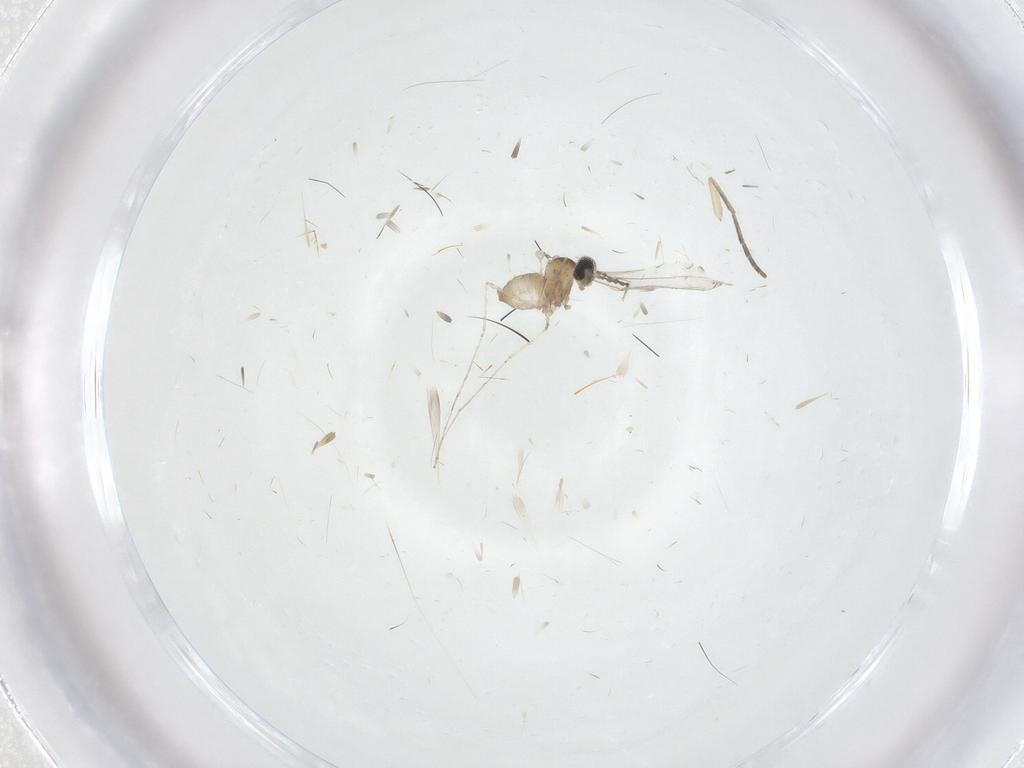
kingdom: Animalia
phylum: Arthropoda
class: Insecta
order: Diptera
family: Cecidomyiidae
